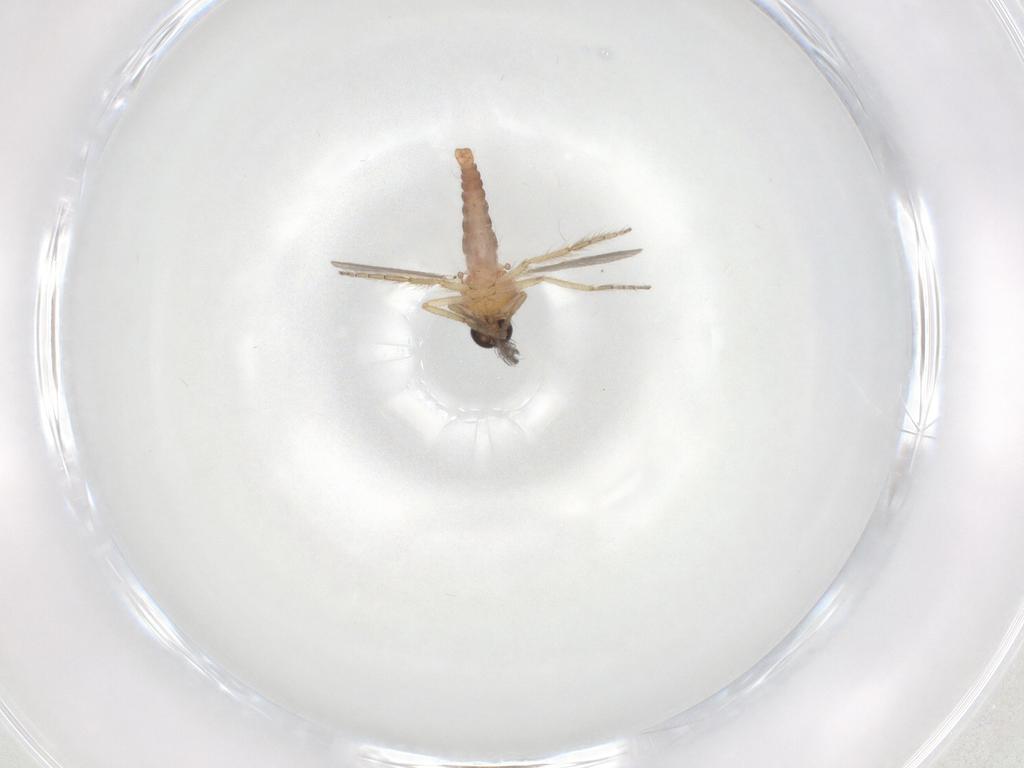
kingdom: Animalia
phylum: Arthropoda
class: Insecta
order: Diptera
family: Ceratopogonidae
